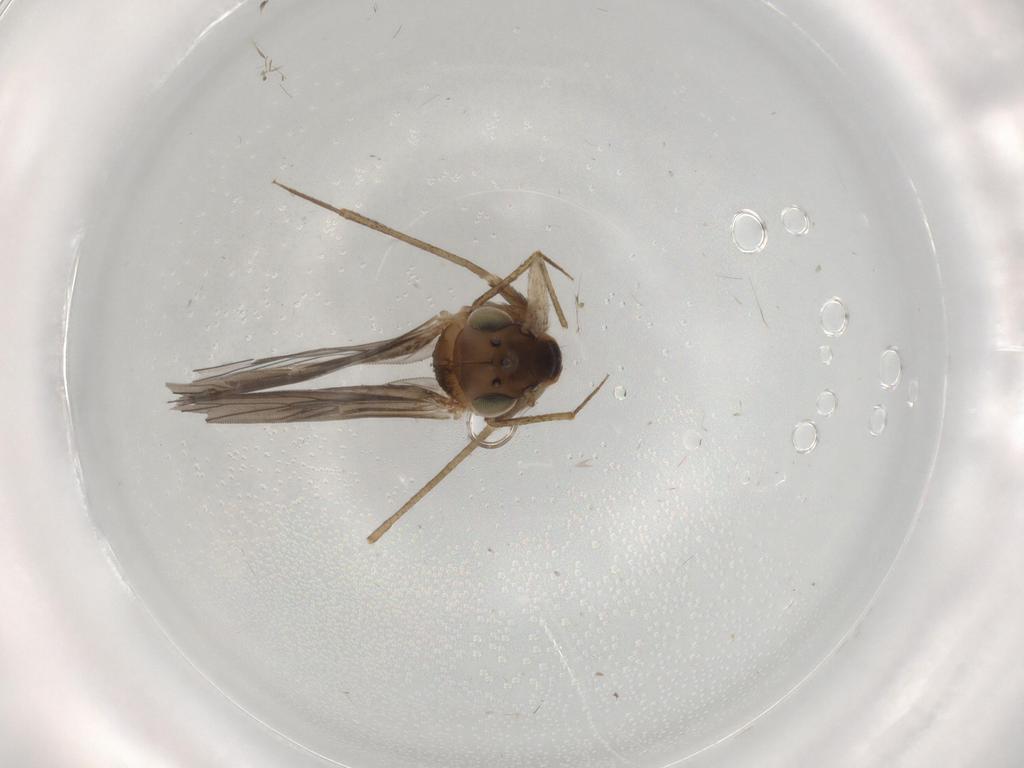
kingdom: Animalia
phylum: Arthropoda
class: Insecta
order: Psocodea
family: Lepidopsocidae
